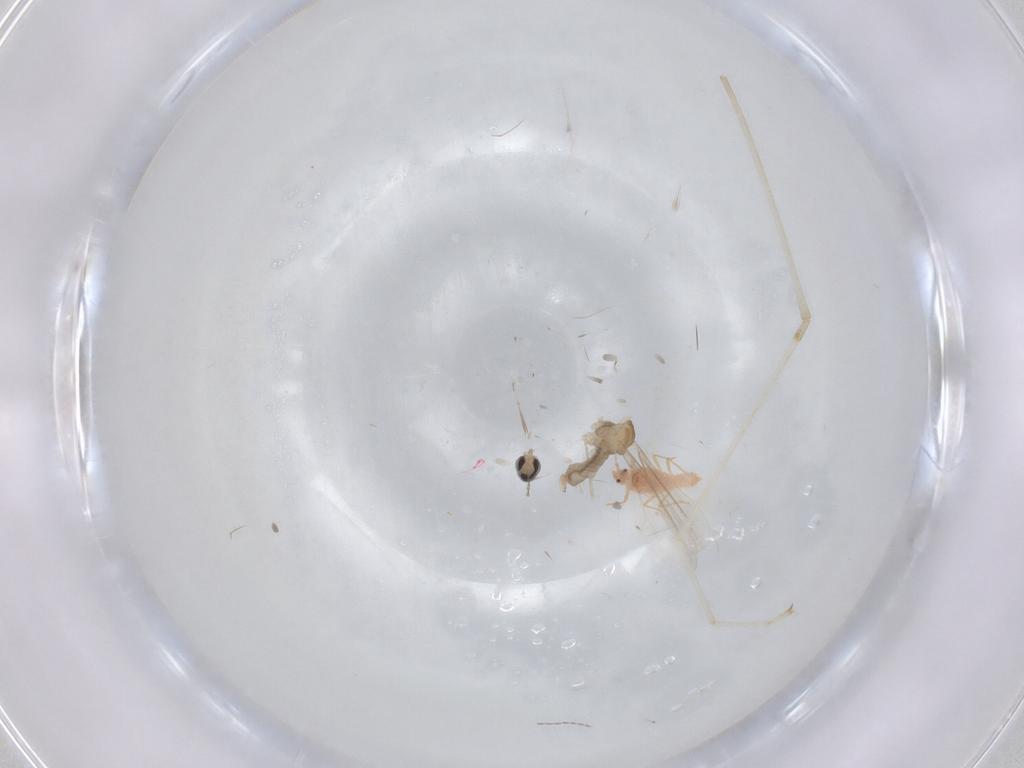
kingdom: Animalia
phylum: Arthropoda
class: Insecta
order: Diptera
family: Cecidomyiidae
